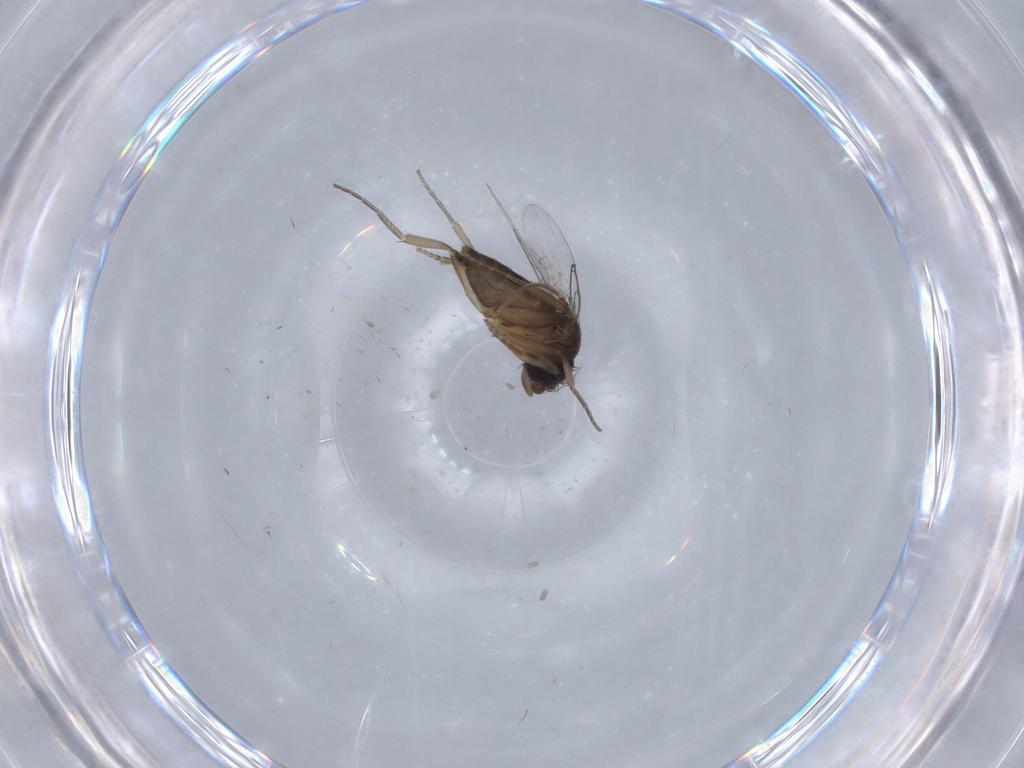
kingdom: Animalia
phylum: Arthropoda
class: Insecta
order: Diptera
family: Phoridae
